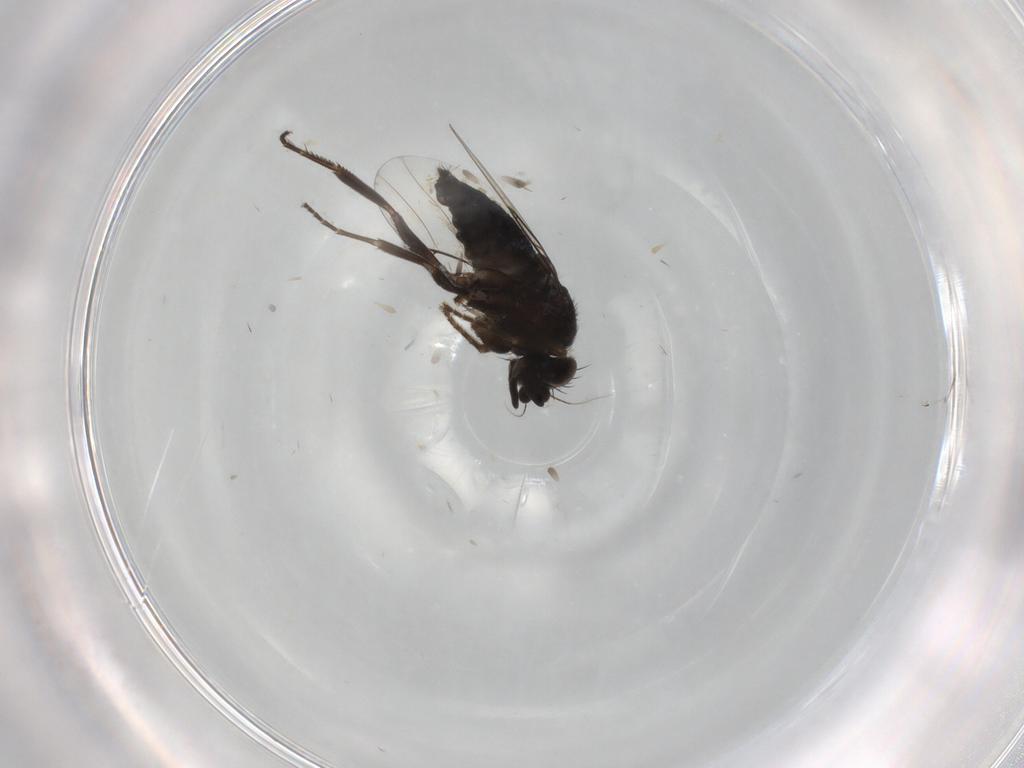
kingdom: Animalia
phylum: Arthropoda
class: Insecta
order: Diptera
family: Phoridae
